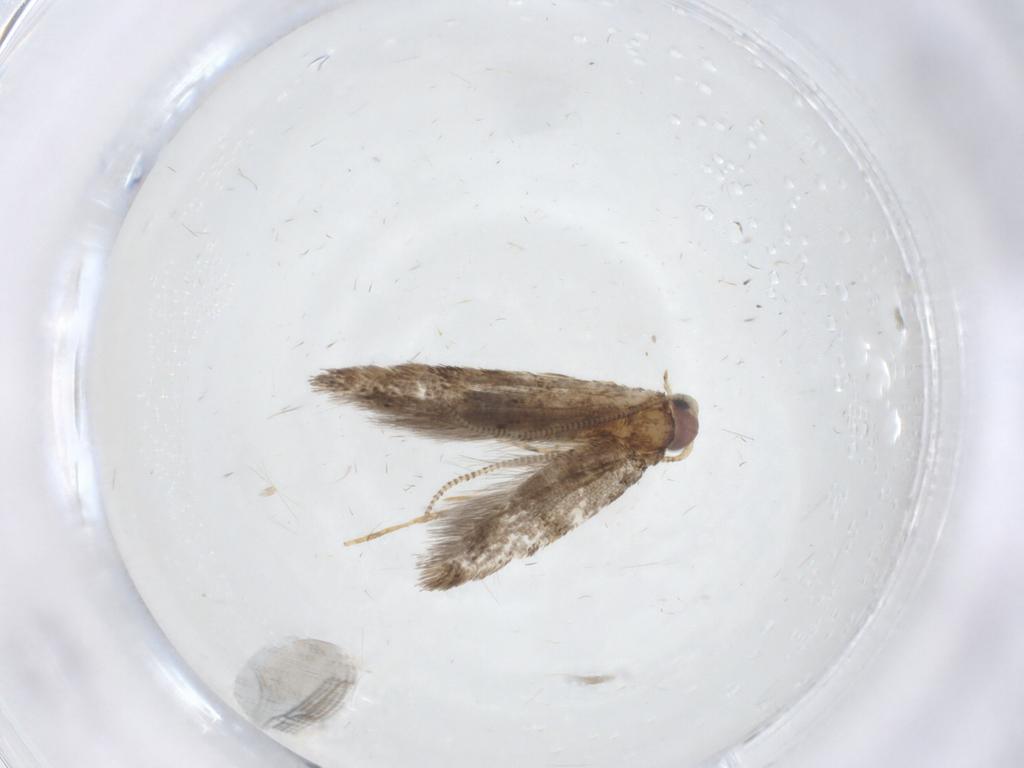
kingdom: Animalia
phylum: Arthropoda
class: Insecta
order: Lepidoptera
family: Tineidae
